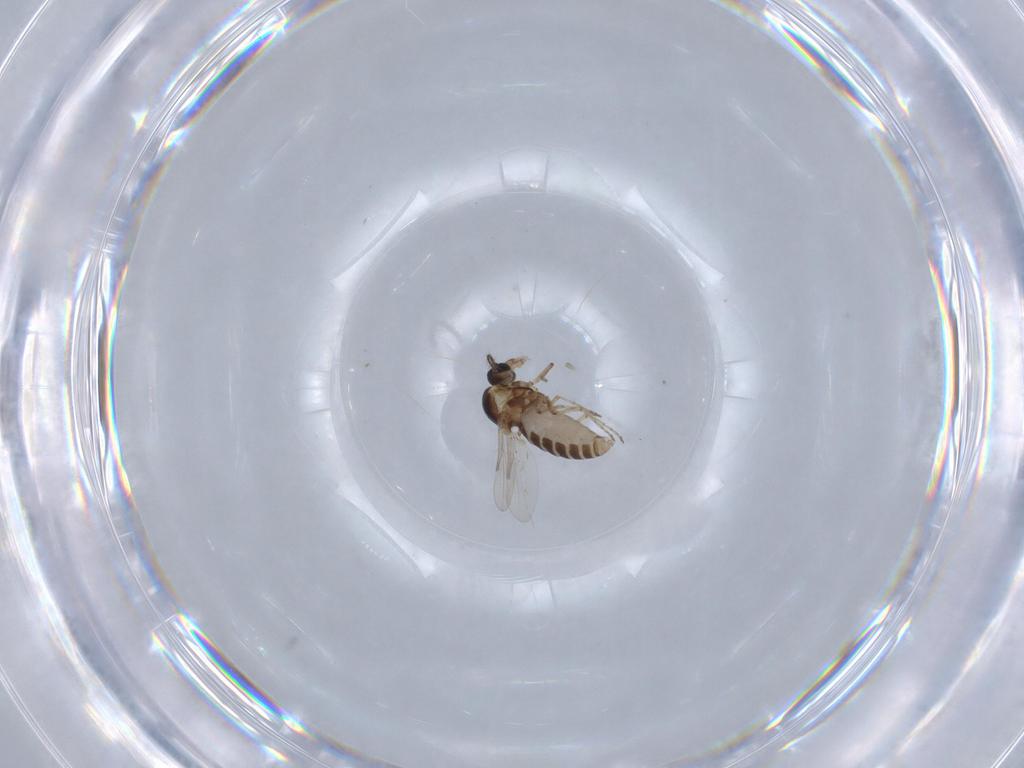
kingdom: Animalia
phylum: Arthropoda
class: Insecta
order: Diptera
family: Ceratopogonidae
